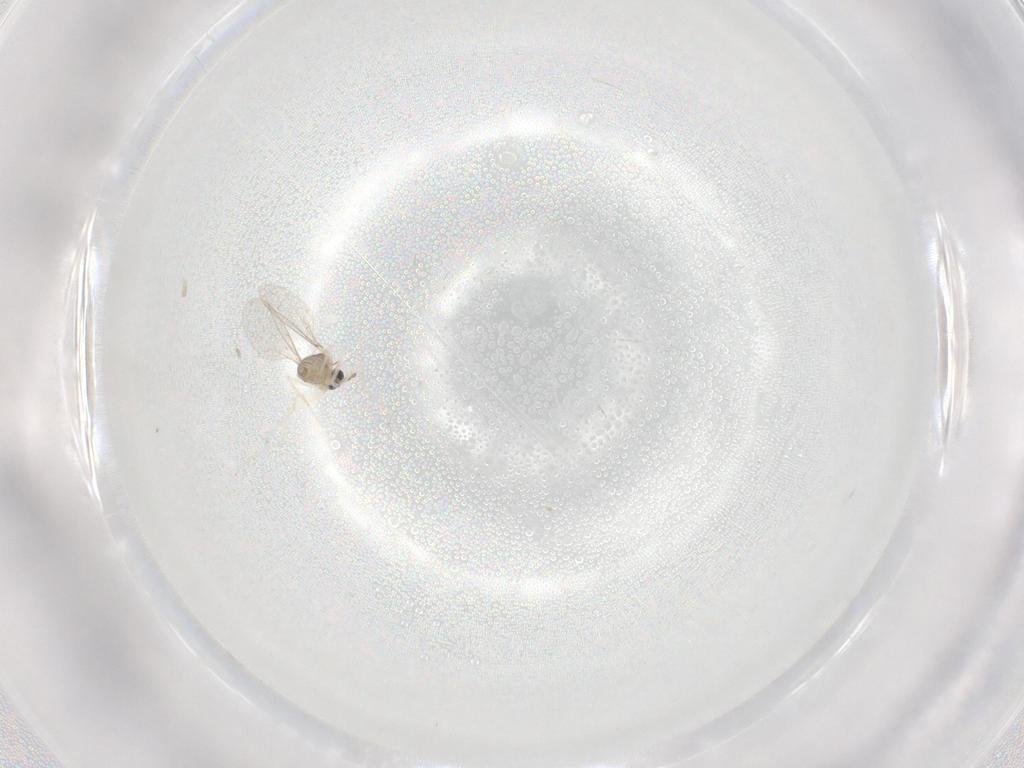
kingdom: Animalia
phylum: Arthropoda
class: Insecta
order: Diptera
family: Cecidomyiidae
